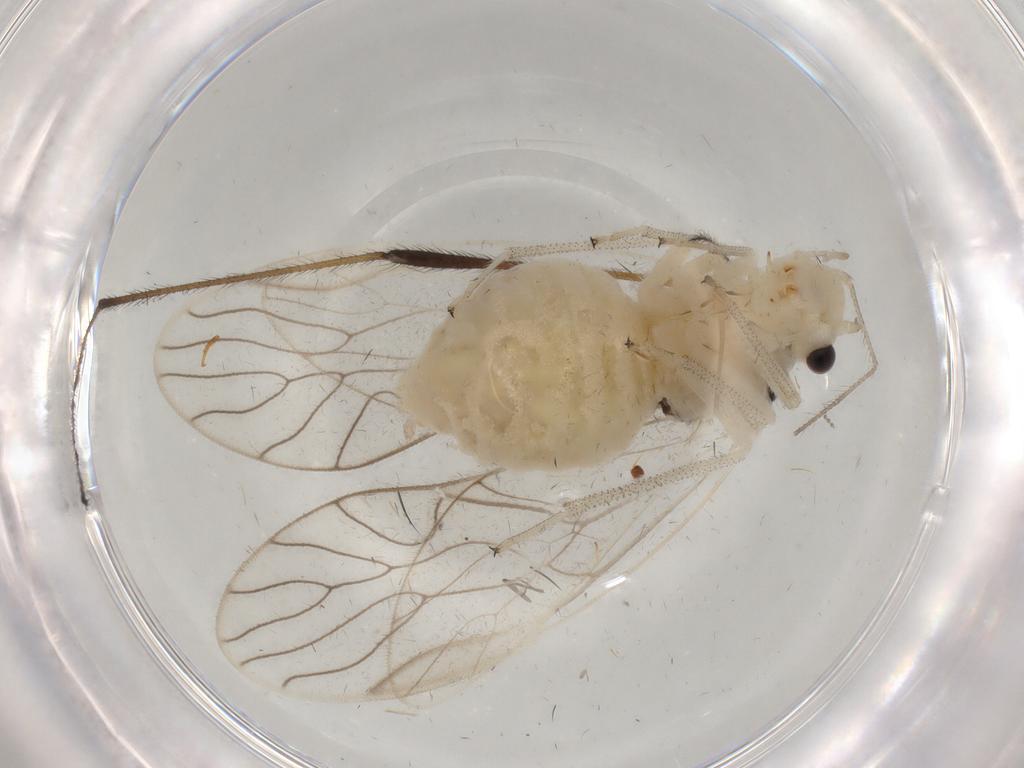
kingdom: Animalia
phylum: Arthropoda
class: Insecta
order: Psocodea
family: Amphipsocidae
